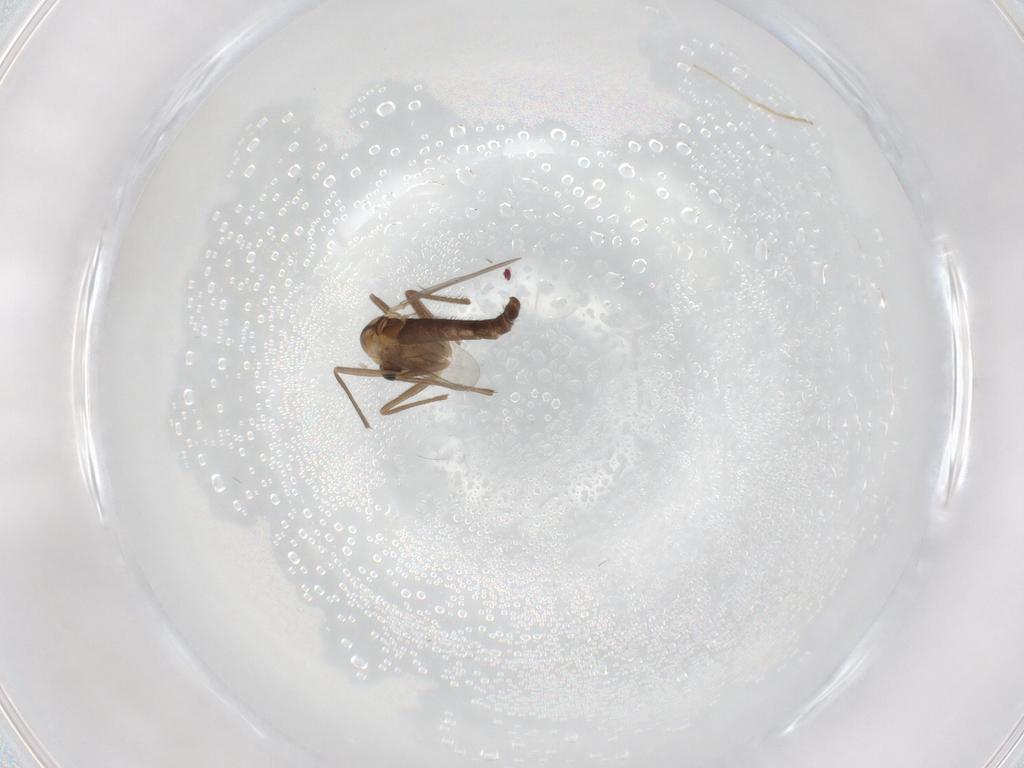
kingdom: Animalia
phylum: Arthropoda
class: Insecta
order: Diptera
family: Chironomidae
